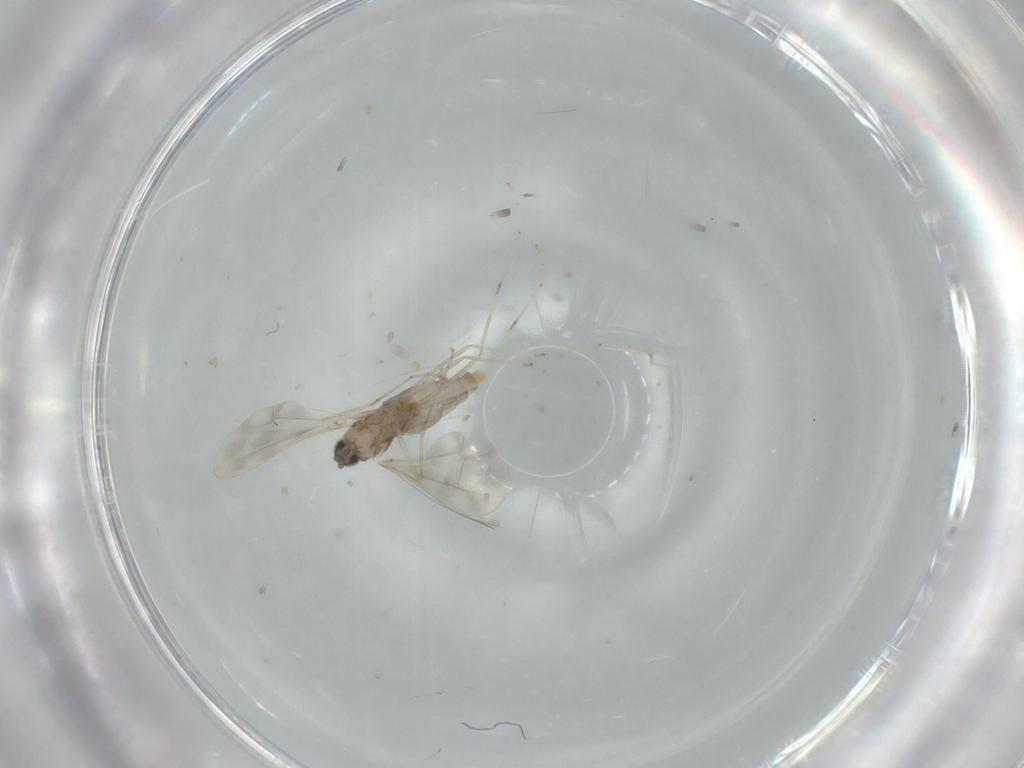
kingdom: Animalia
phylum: Arthropoda
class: Insecta
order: Diptera
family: Cecidomyiidae
